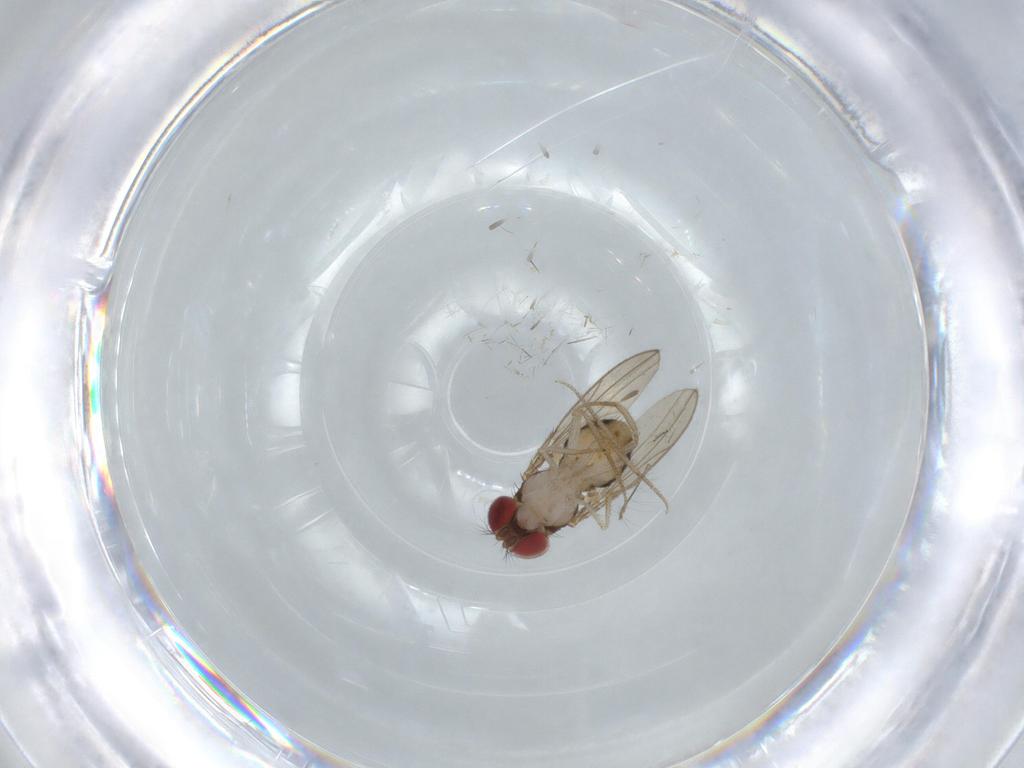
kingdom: Animalia
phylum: Arthropoda
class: Insecta
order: Diptera
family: Drosophilidae
